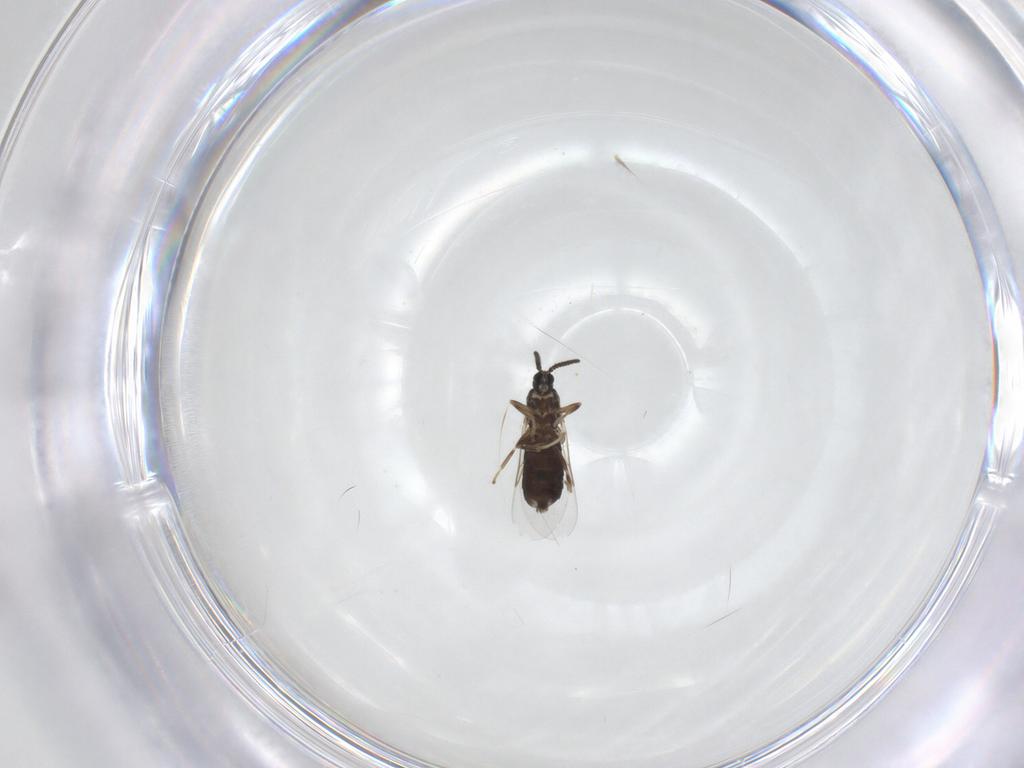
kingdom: Animalia
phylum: Arthropoda
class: Insecta
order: Diptera
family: Scatopsidae
